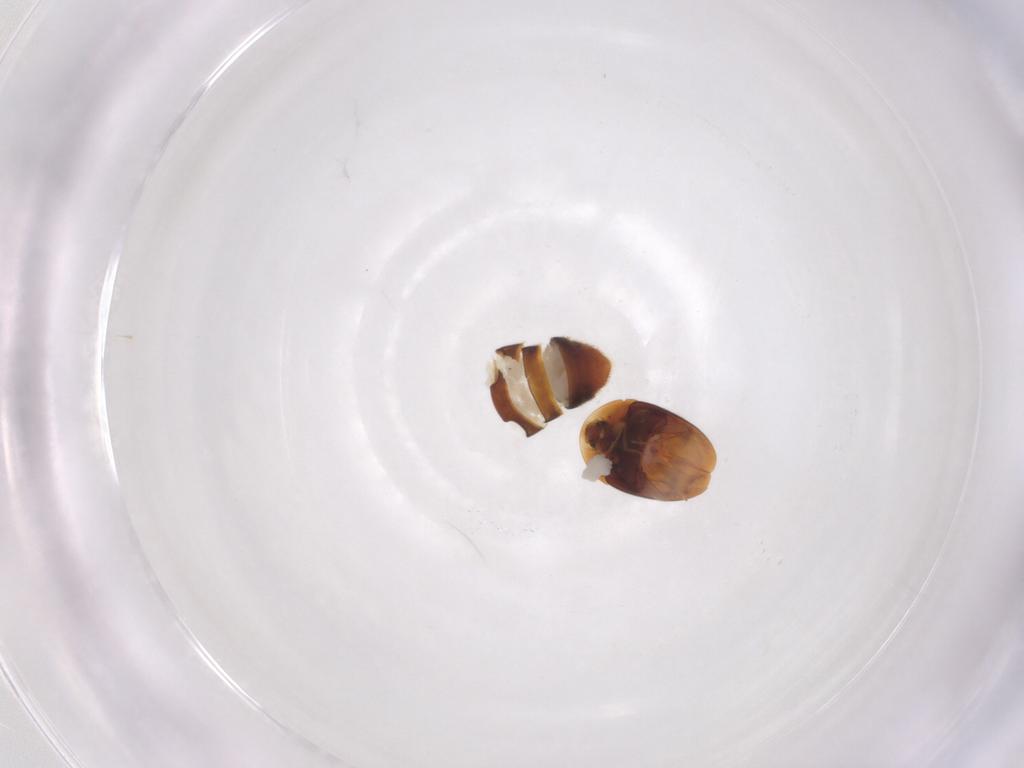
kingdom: Animalia
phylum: Arthropoda
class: Insecta
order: Coleoptera
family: Corylophidae
